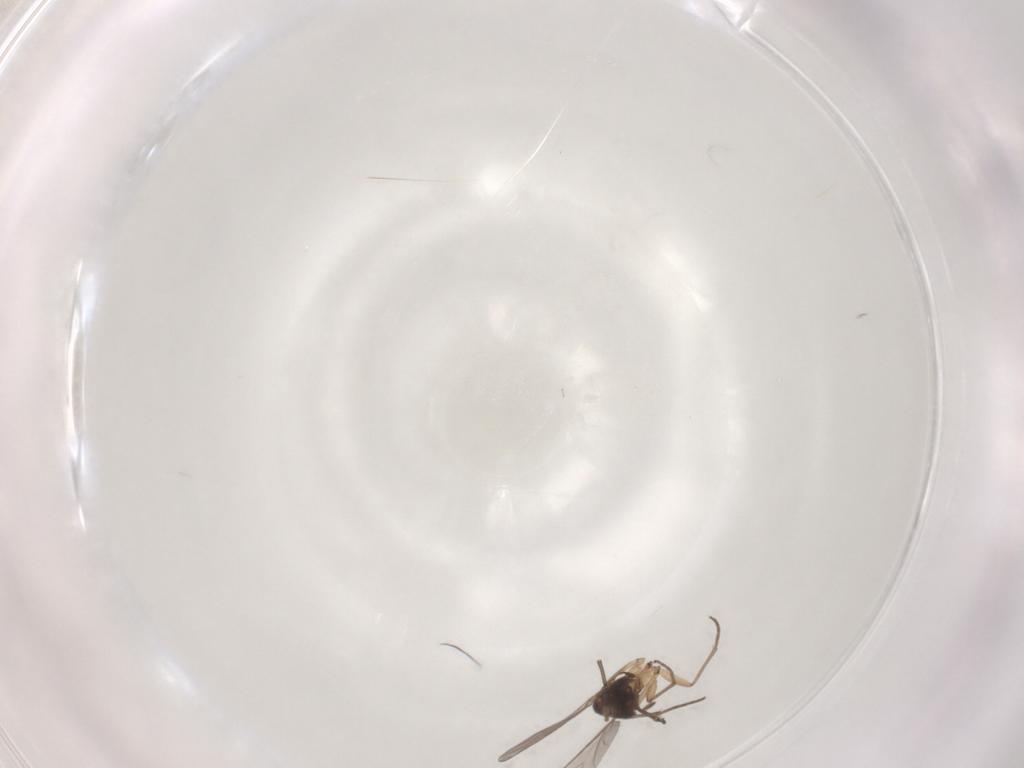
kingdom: Animalia
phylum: Arthropoda
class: Insecta
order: Diptera
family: Sciaridae
